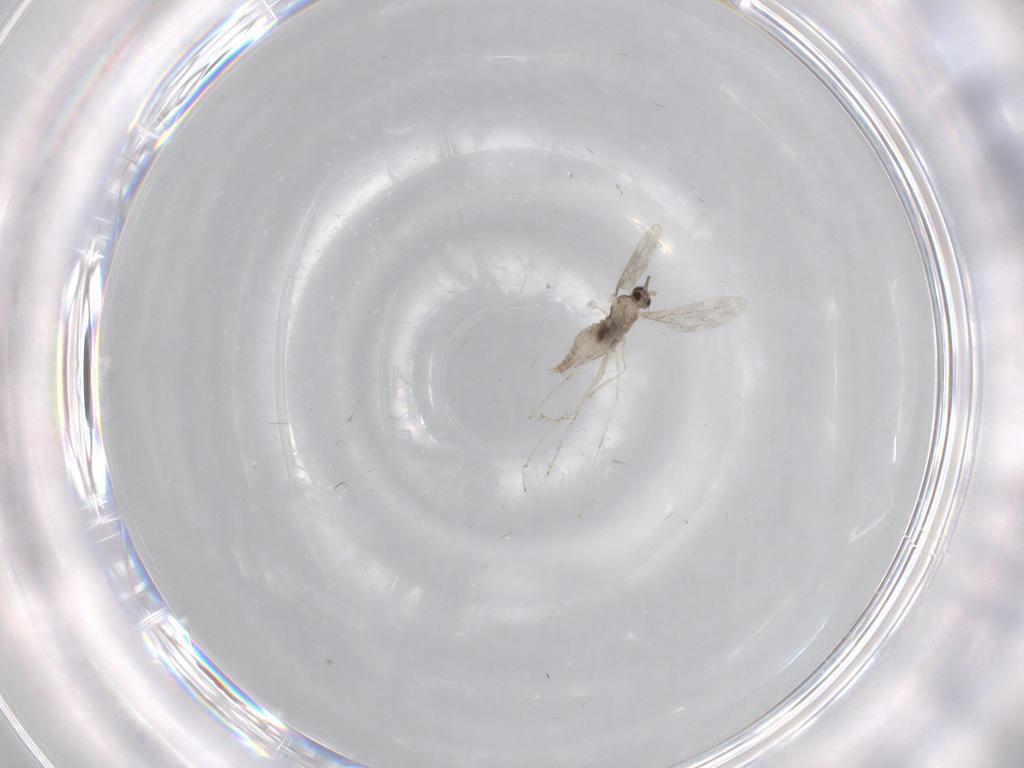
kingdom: Animalia
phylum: Arthropoda
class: Insecta
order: Diptera
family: Cecidomyiidae
